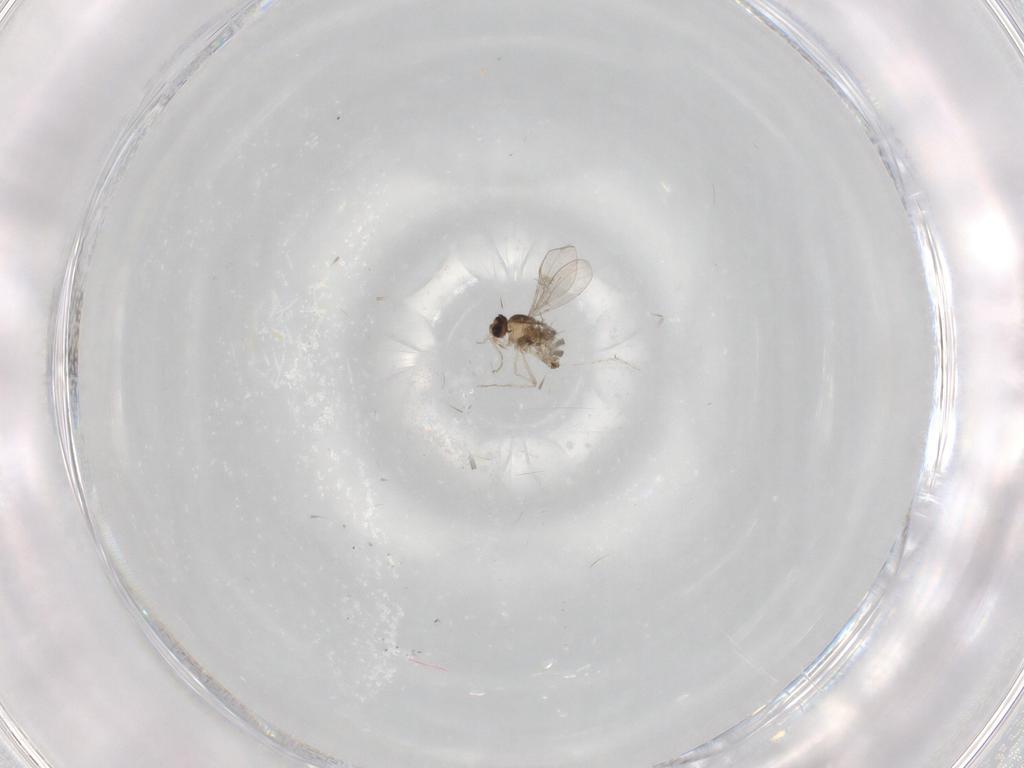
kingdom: Animalia
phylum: Arthropoda
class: Insecta
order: Diptera
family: Cecidomyiidae
